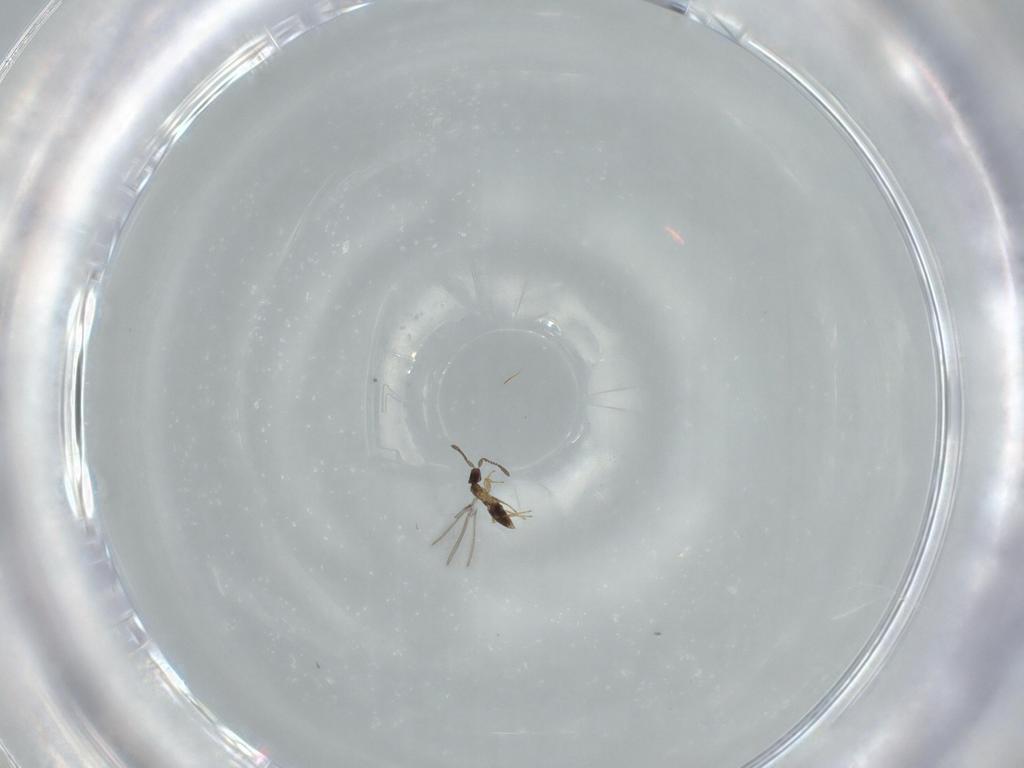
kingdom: Animalia
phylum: Arthropoda
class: Insecta
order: Hymenoptera
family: Mymaridae
